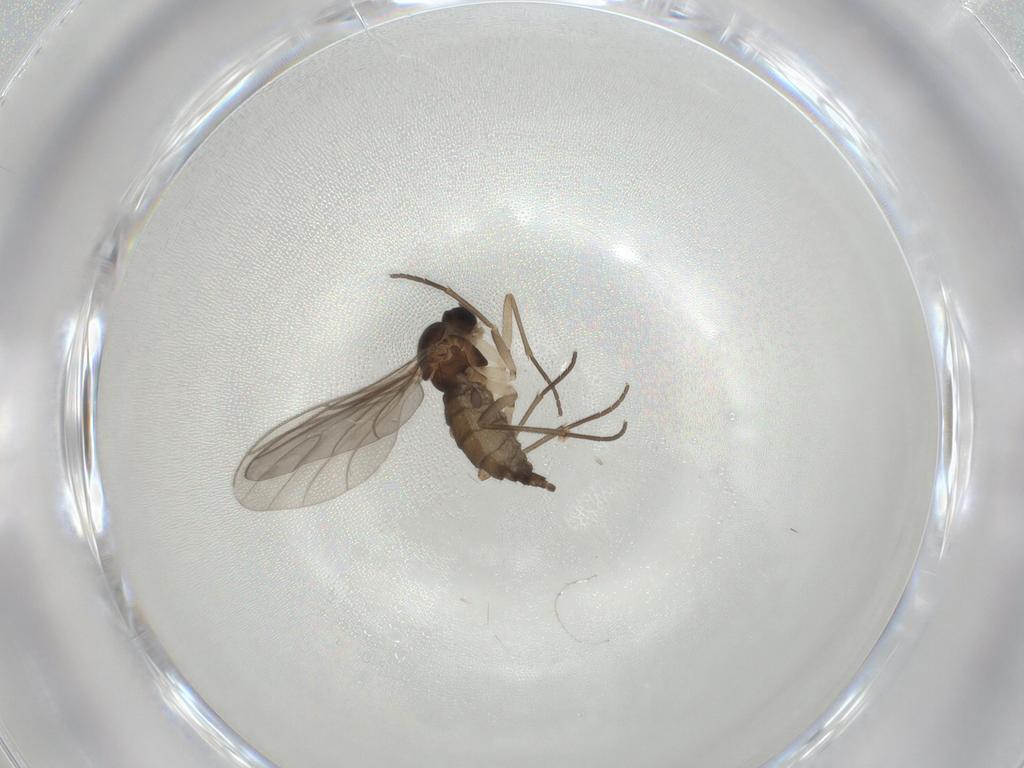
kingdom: Animalia
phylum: Arthropoda
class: Insecta
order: Diptera
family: Sciaridae
